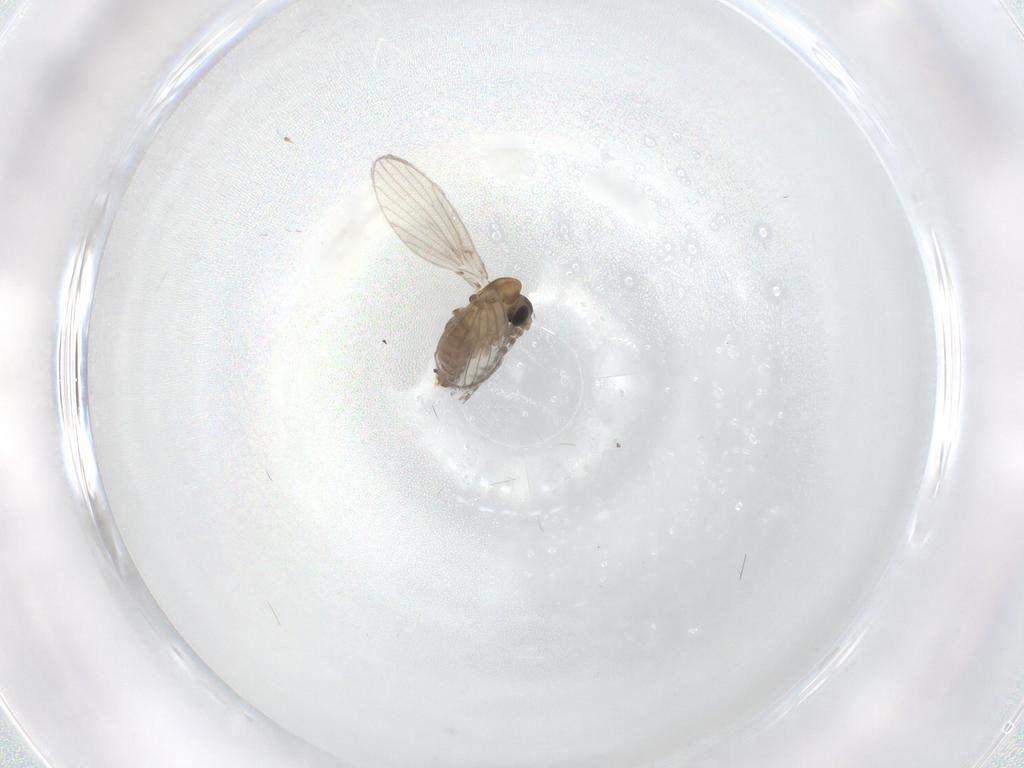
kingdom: Animalia
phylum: Arthropoda
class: Insecta
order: Diptera
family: Psychodidae
